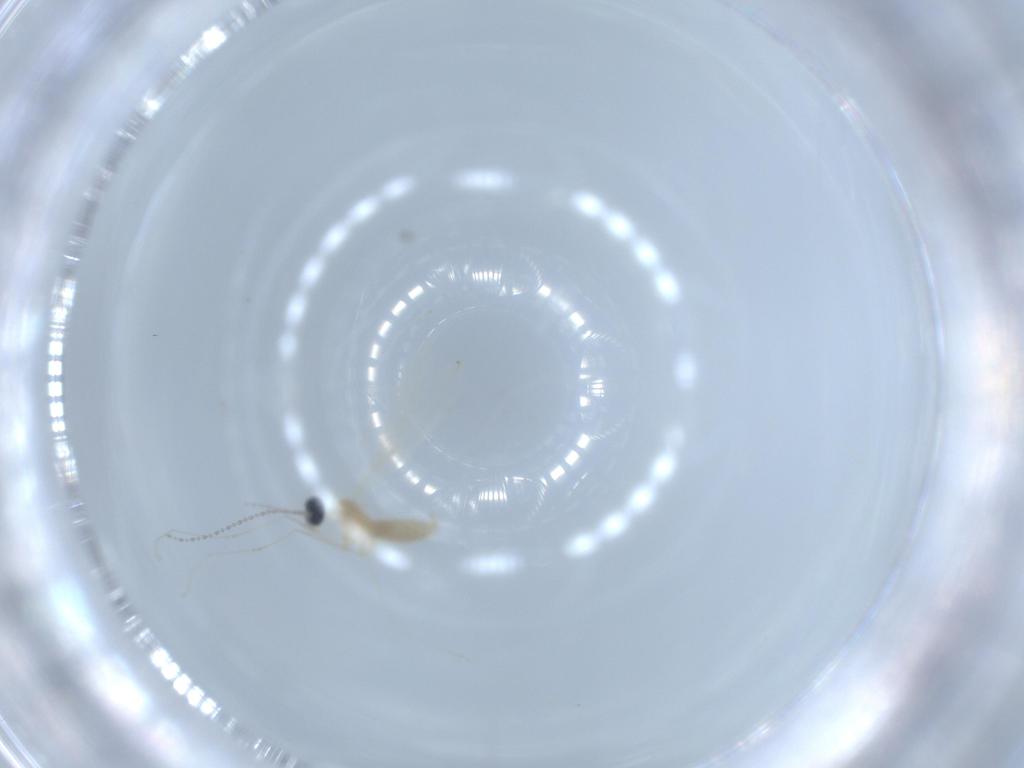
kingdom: Animalia
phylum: Arthropoda
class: Insecta
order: Diptera
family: Cecidomyiidae
